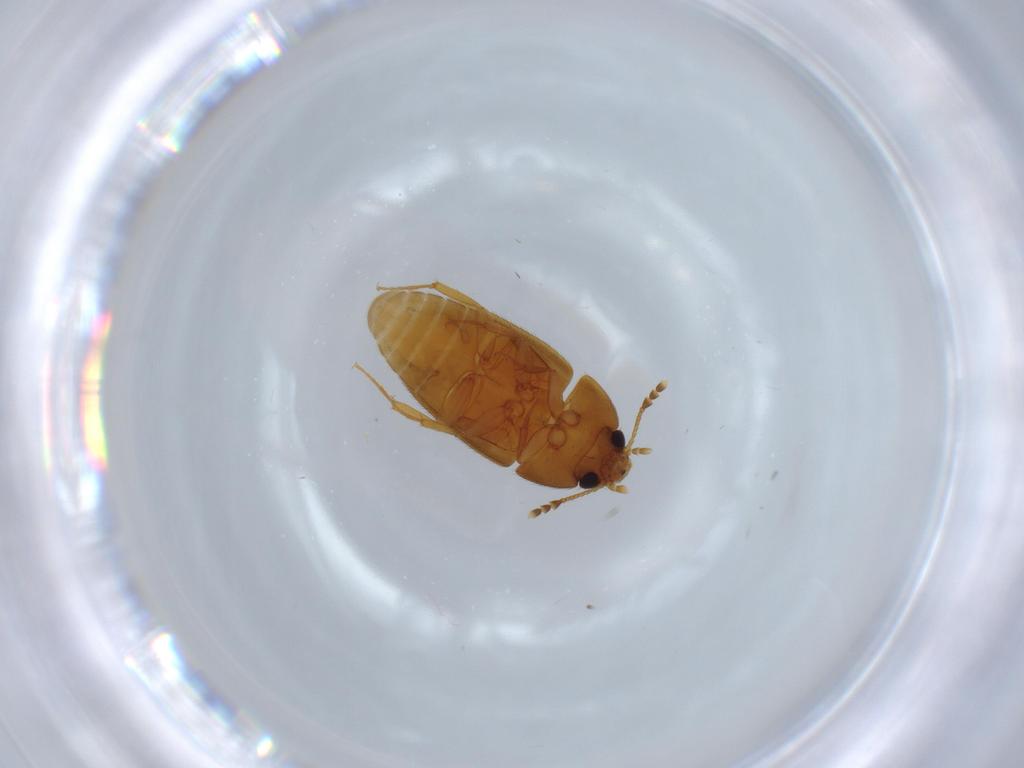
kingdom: Animalia
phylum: Arthropoda
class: Insecta
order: Coleoptera
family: Mycetophagidae
